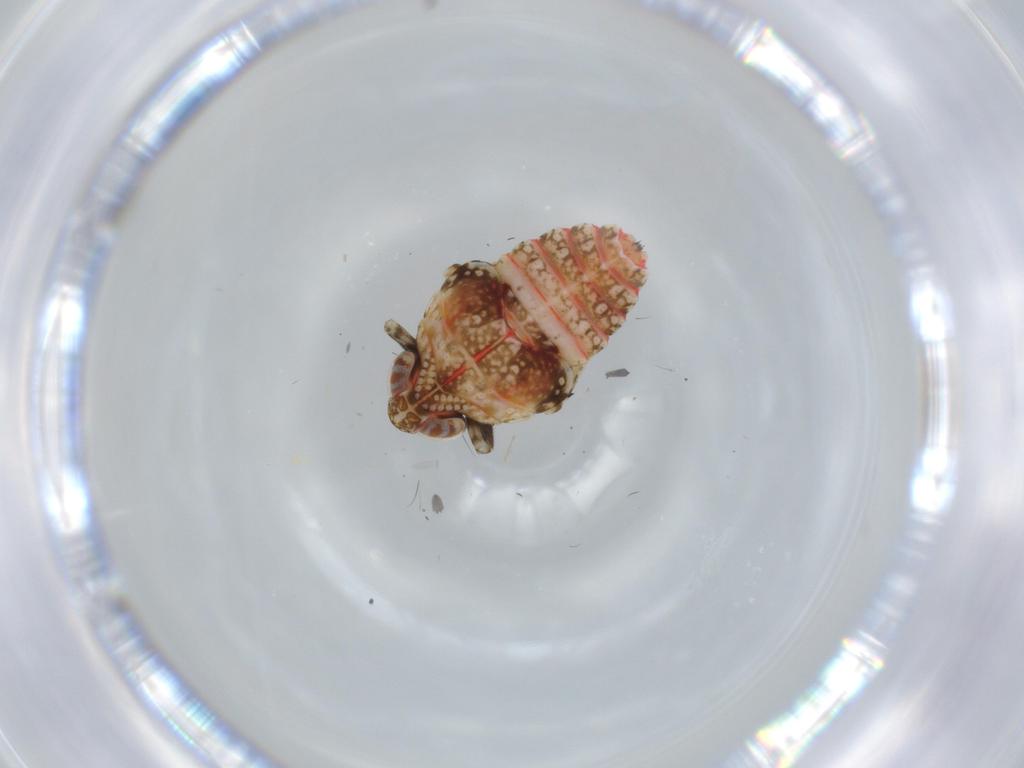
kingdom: Animalia
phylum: Arthropoda
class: Insecta
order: Hemiptera
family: Issidae
